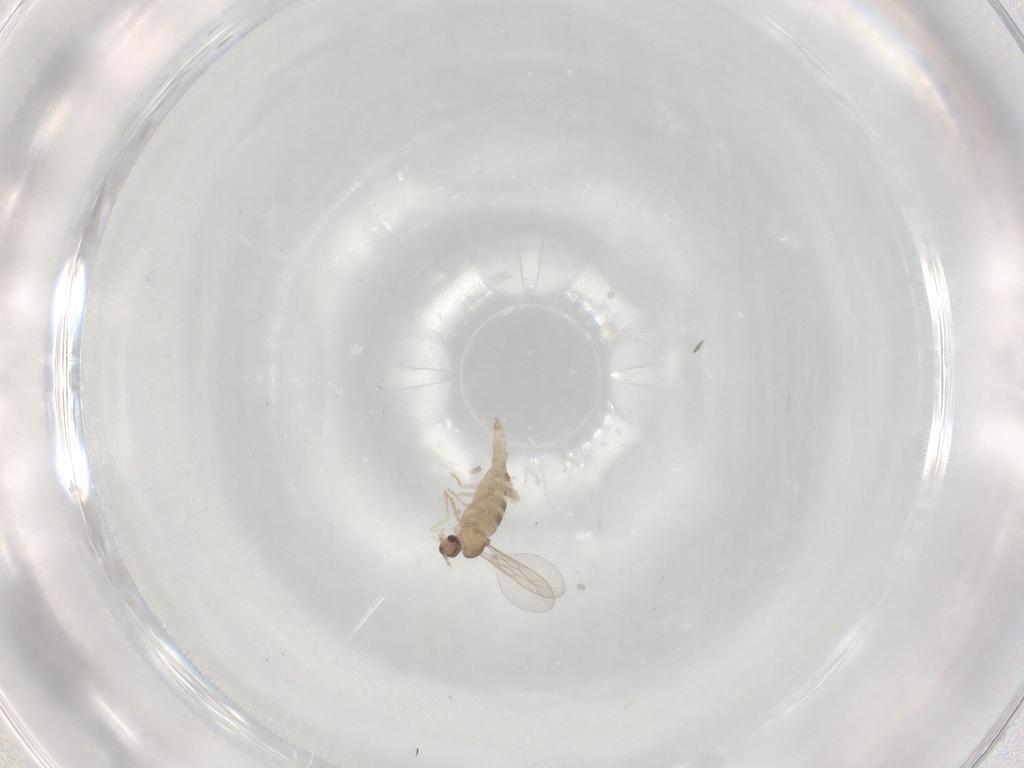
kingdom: Animalia
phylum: Arthropoda
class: Insecta
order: Diptera
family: Cecidomyiidae
